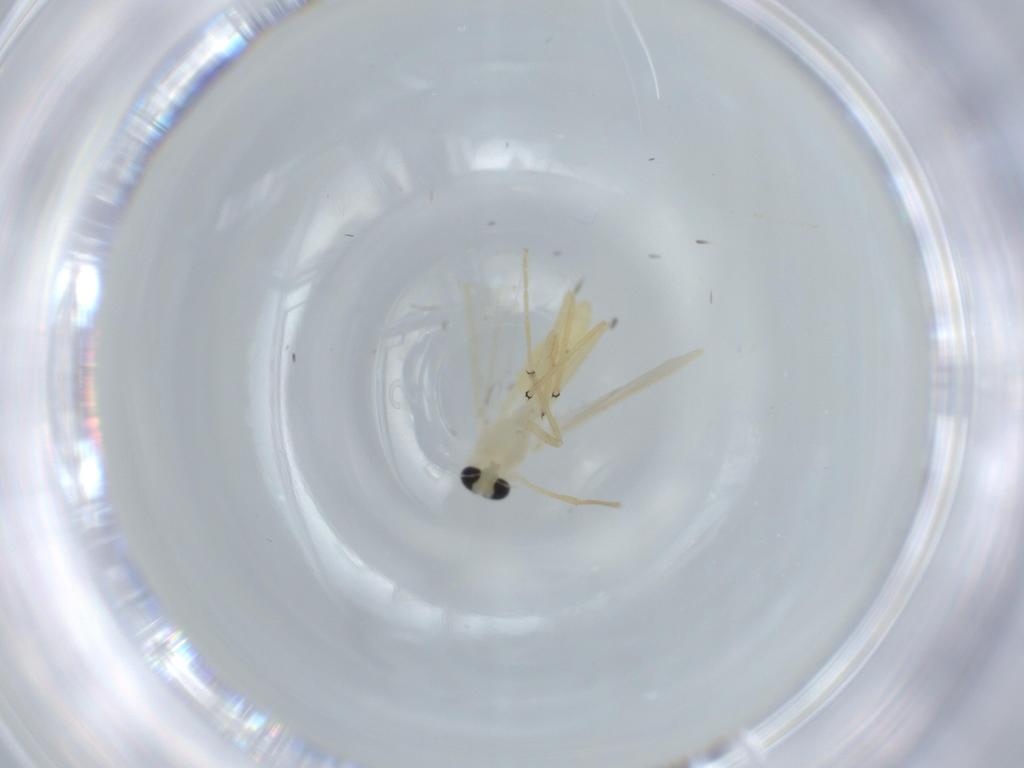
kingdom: Animalia
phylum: Arthropoda
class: Insecta
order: Diptera
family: Chironomidae
